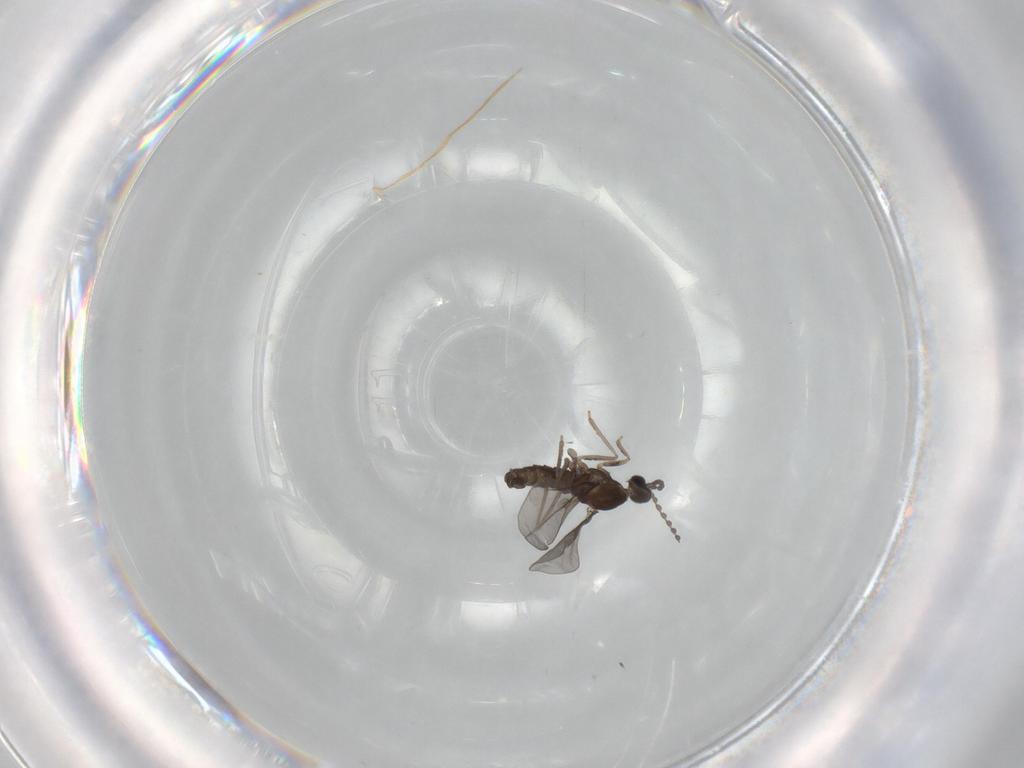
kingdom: Animalia
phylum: Arthropoda
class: Insecta
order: Diptera
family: Cecidomyiidae
